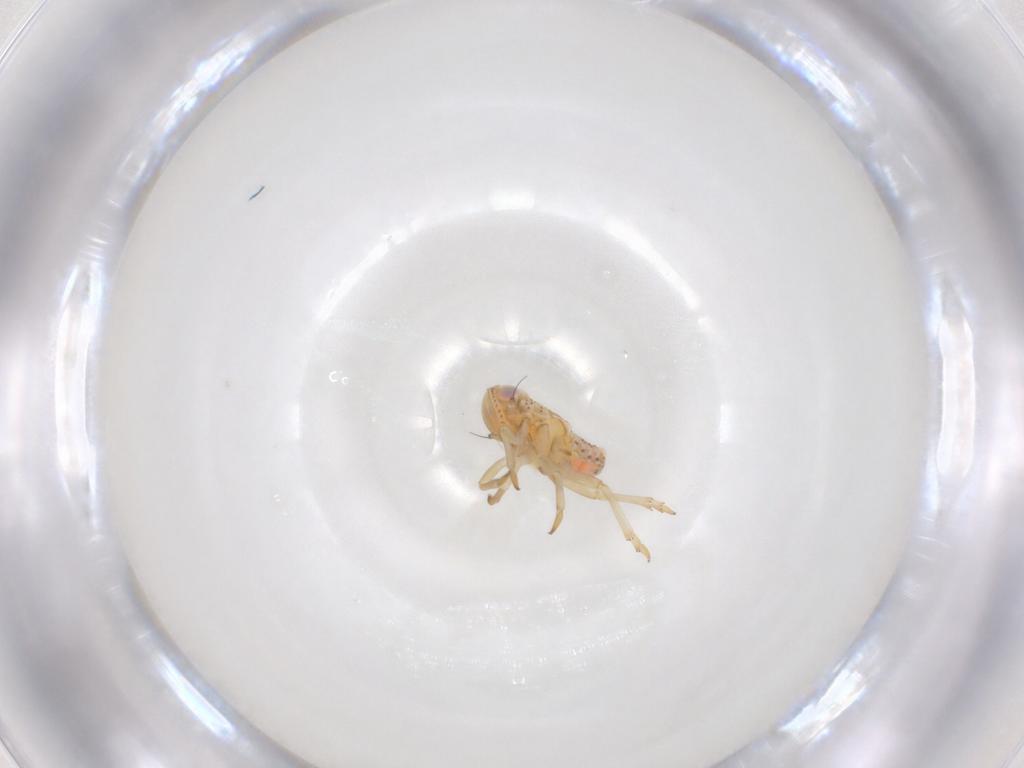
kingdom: Animalia
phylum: Arthropoda
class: Insecta
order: Hemiptera
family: Tropiduchidae
